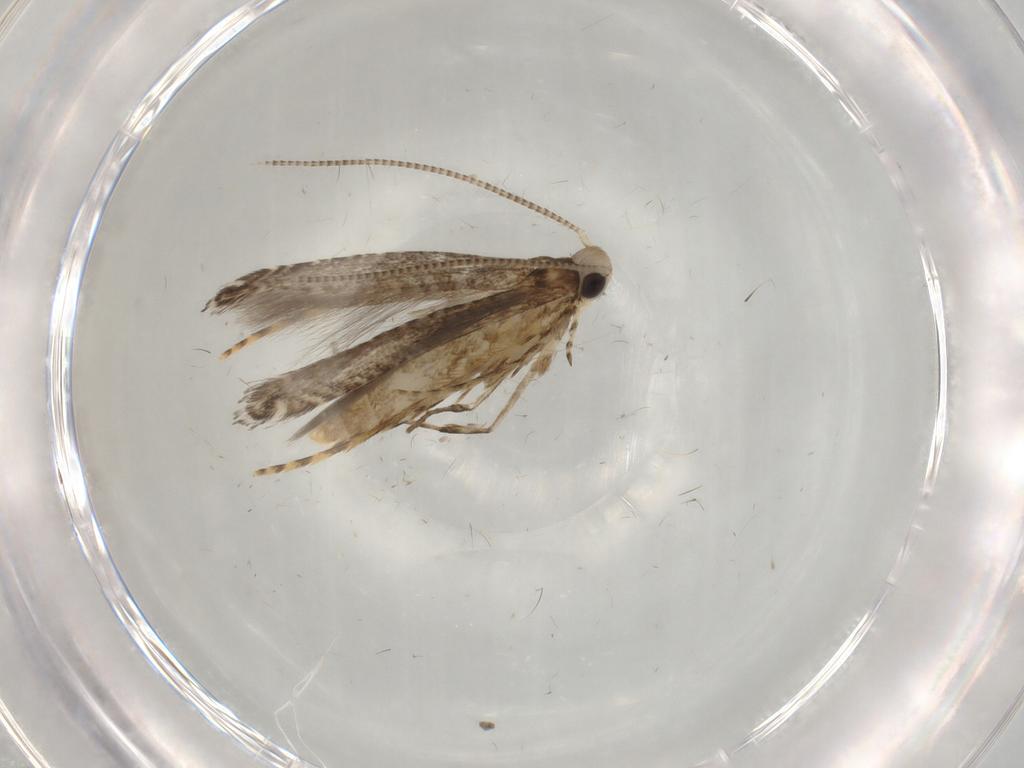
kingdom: Animalia
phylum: Arthropoda
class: Insecta
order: Lepidoptera
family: Gracillariidae
